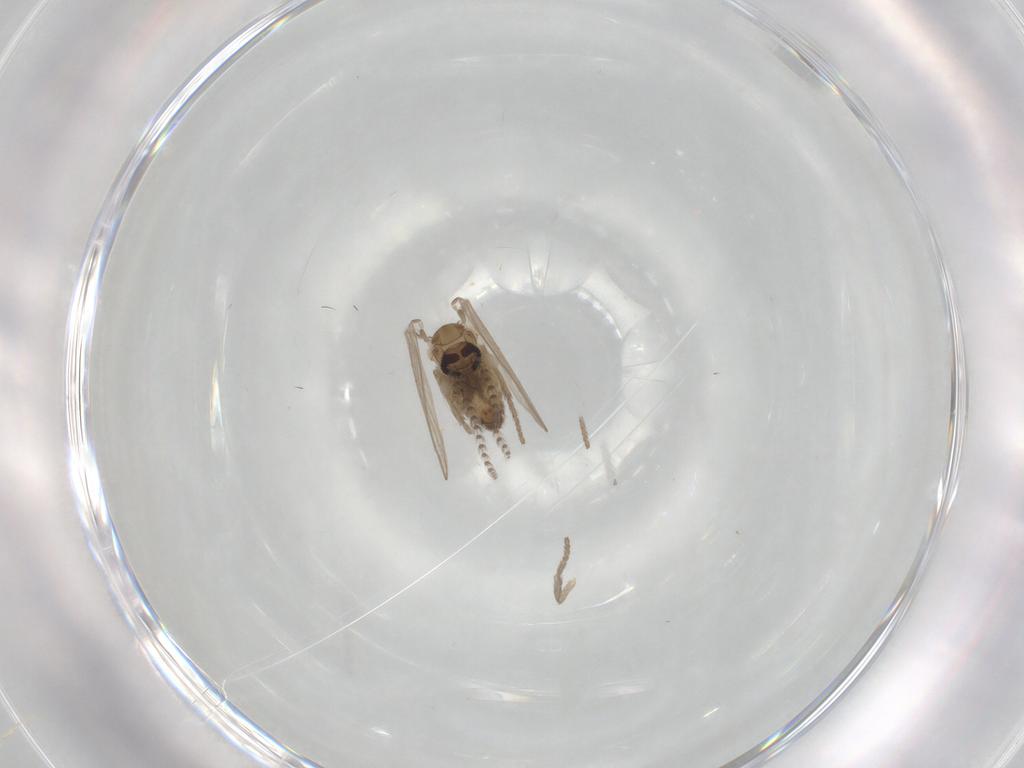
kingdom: Animalia
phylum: Arthropoda
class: Insecta
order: Diptera
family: Psychodidae
